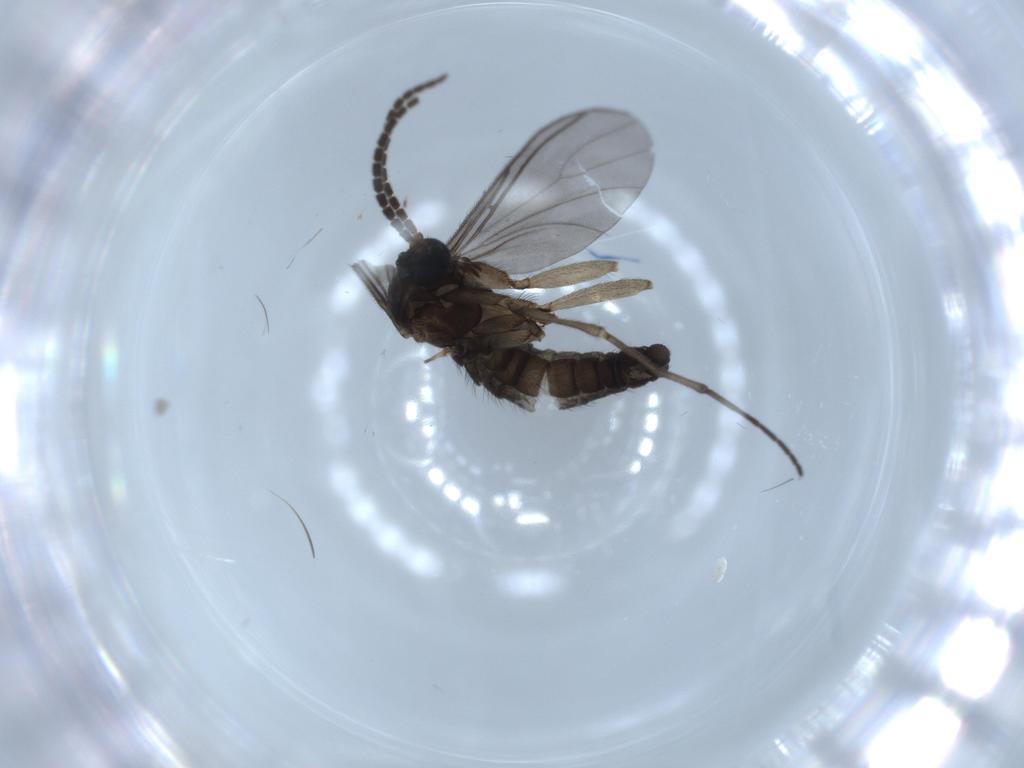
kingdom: Animalia
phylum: Arthropoda
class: Insecta
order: Diptera
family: Sciaridae
